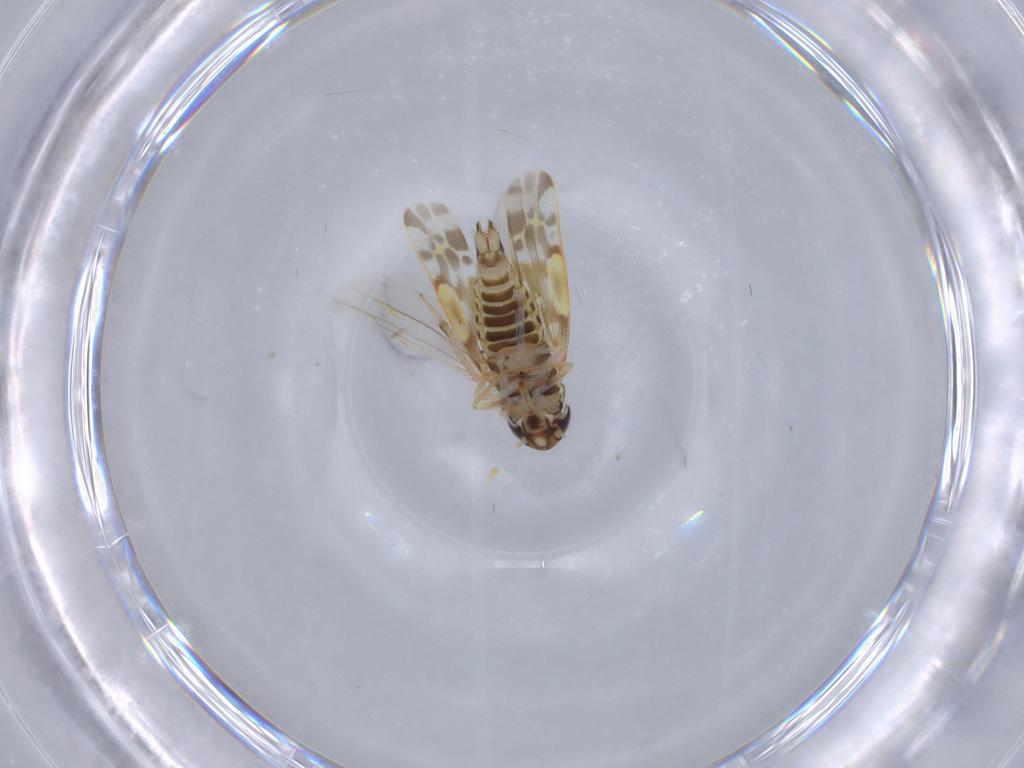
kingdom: Animalia
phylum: Arthropoda
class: Insecta
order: Hemiptera
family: Cicadellidae
